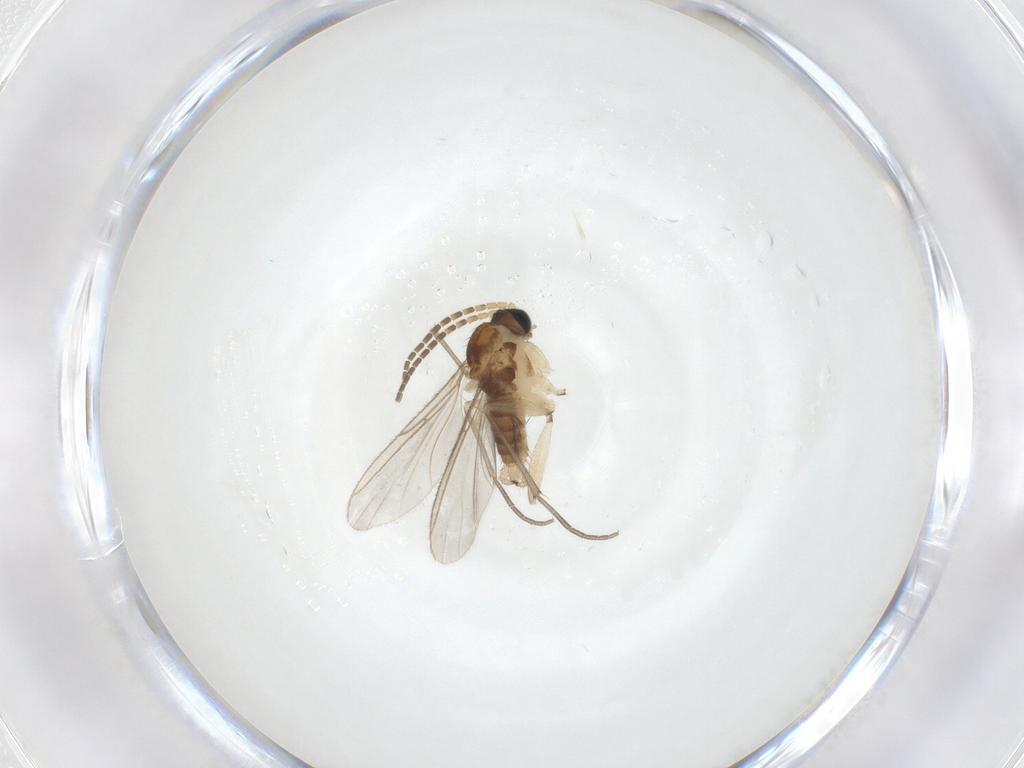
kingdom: Animalia
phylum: Arthropoda
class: Insecta
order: Diptera
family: Sciaridae
